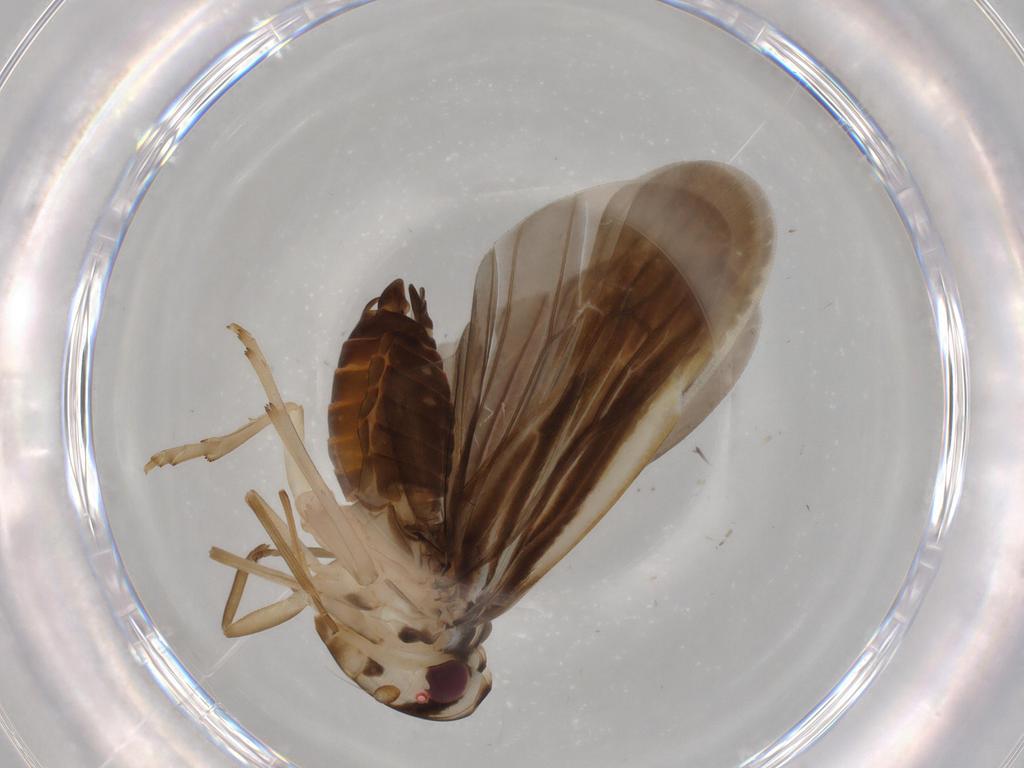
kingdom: Animalia
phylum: Arthropoda
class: Insecta
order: Hemiptera
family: Achilidae
